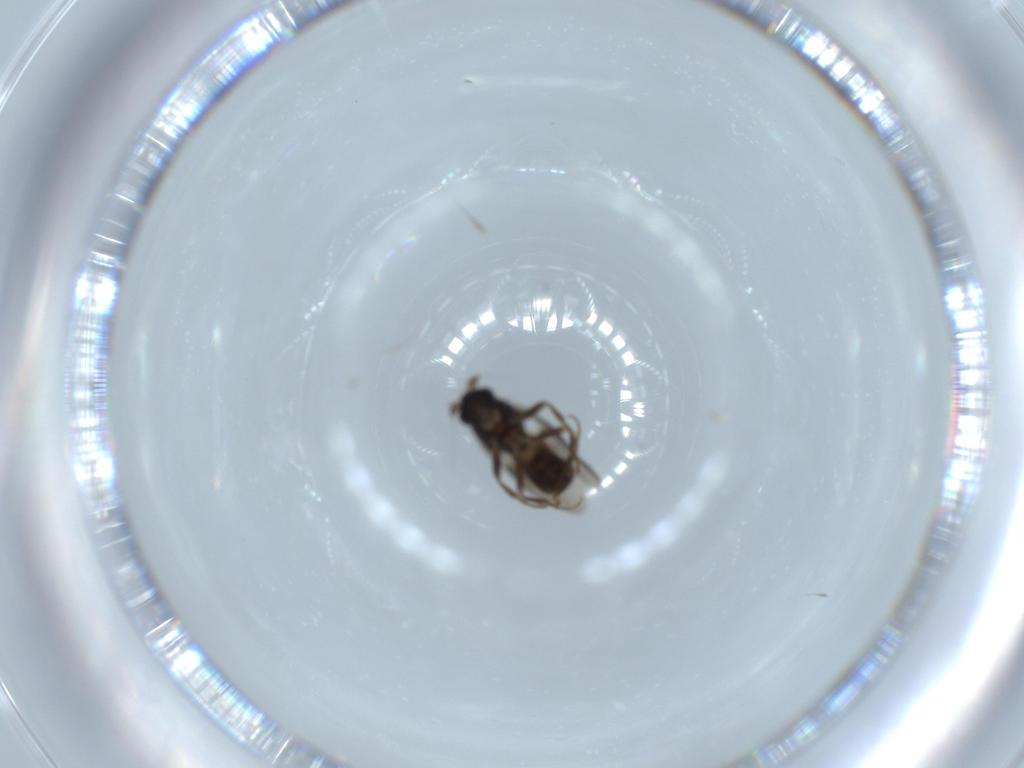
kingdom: Animalia
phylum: Arthropoda
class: Insecta
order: Diptera
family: Sphaeroceridae
